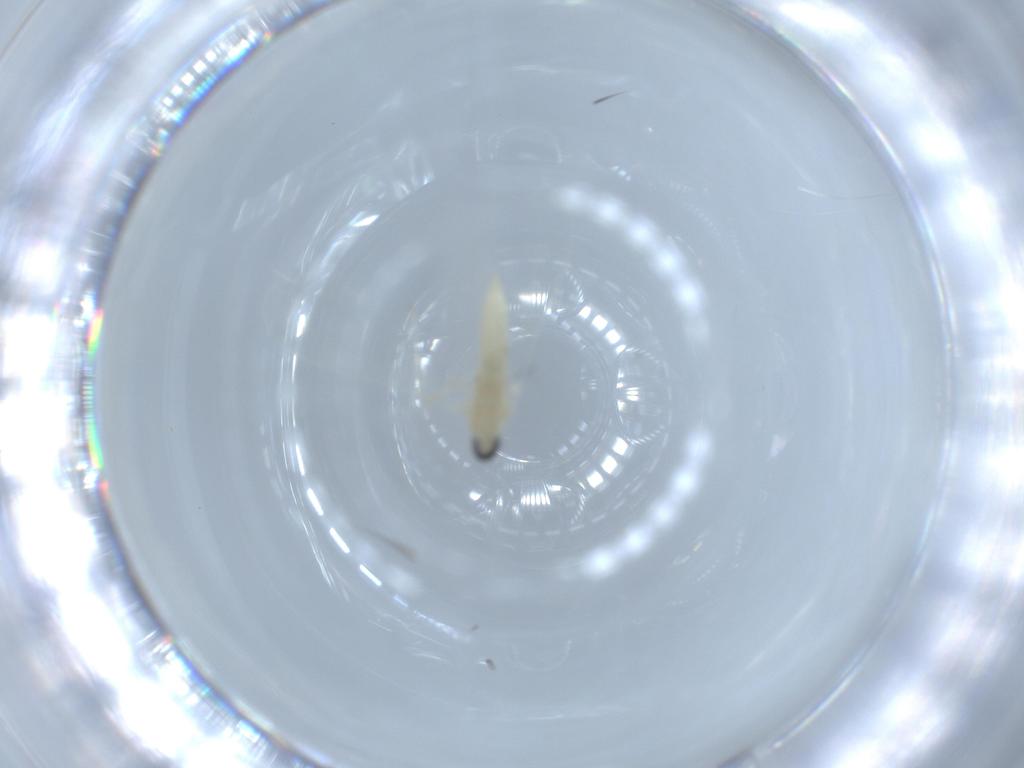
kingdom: Animalia
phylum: Arthropoda
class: Insecta
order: Diptera
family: Cecidomyiidae
